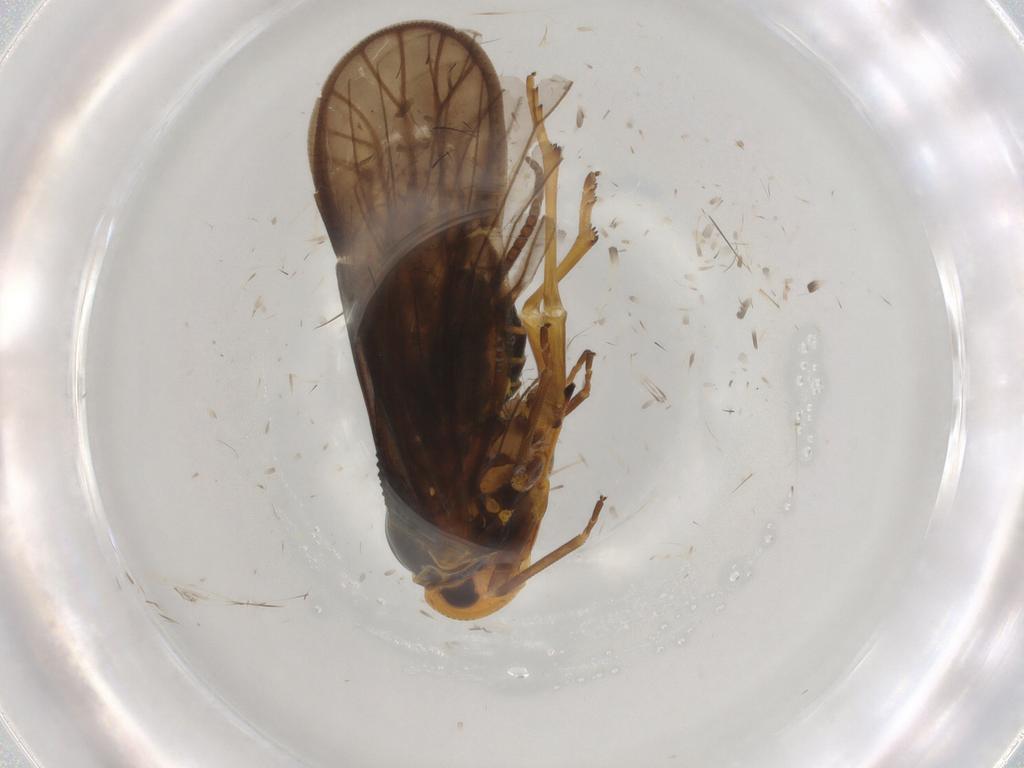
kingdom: Animalia
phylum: Arthropoda
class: Insecta
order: Hemiptera
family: Meenoplidae
